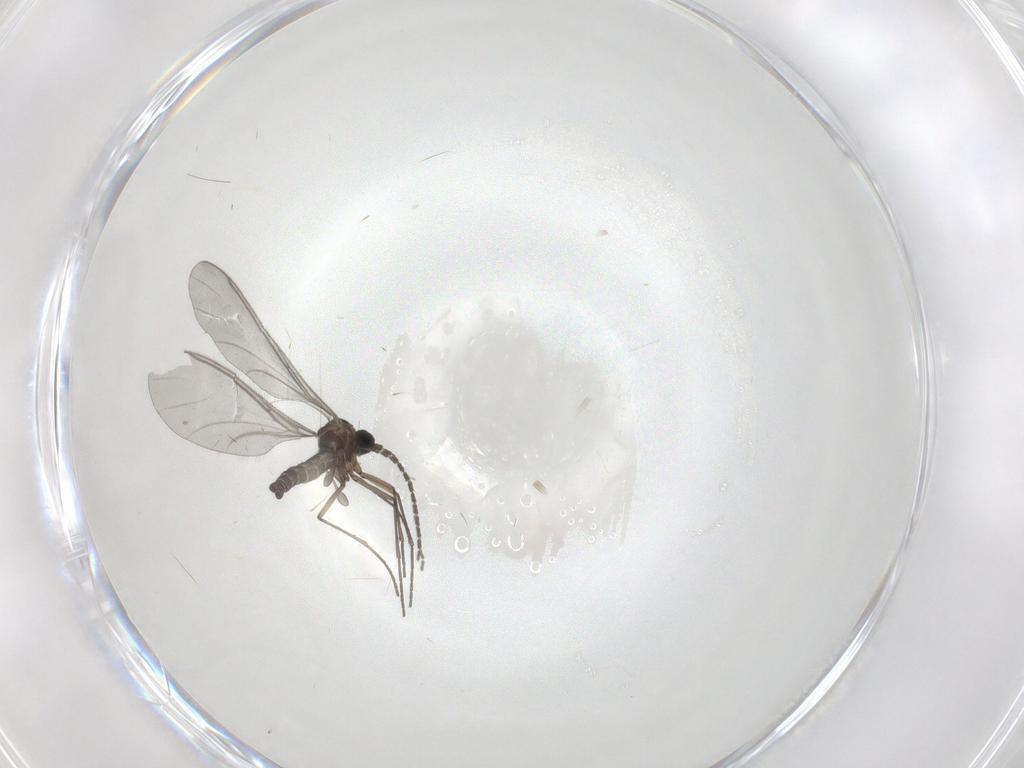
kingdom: Animalia
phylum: Arthropoda
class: Insecta
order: Diptera
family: Sciaridae
